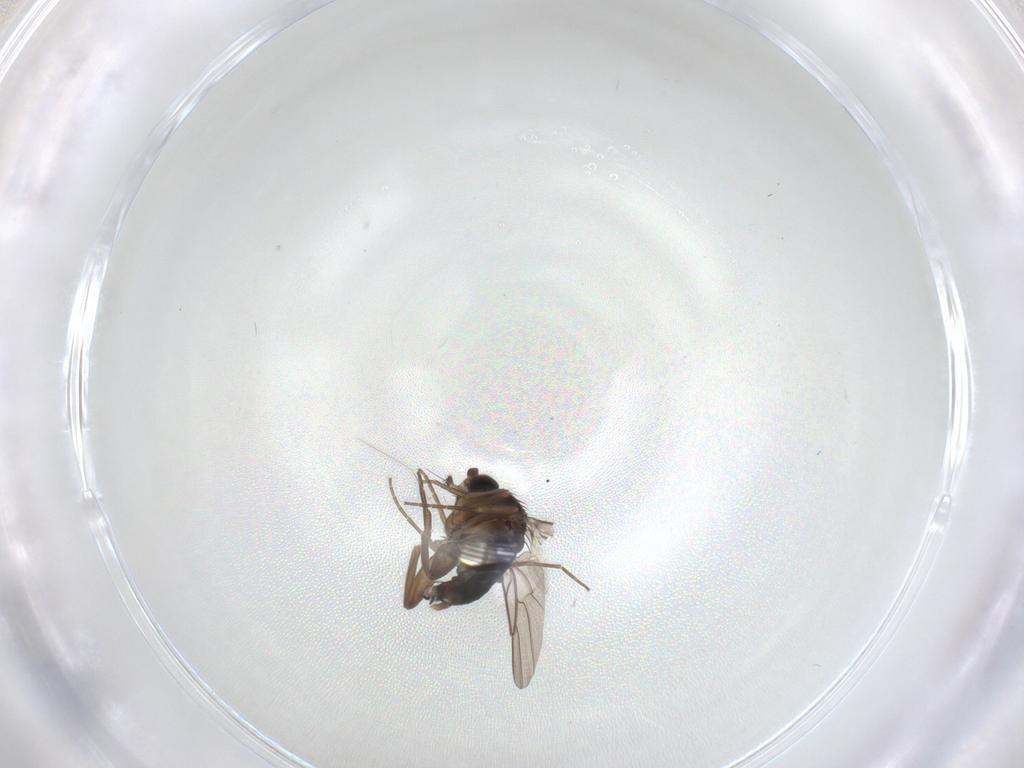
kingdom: Animalia
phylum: Arthropoda
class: Insecta
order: Diptera
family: Phoridae
